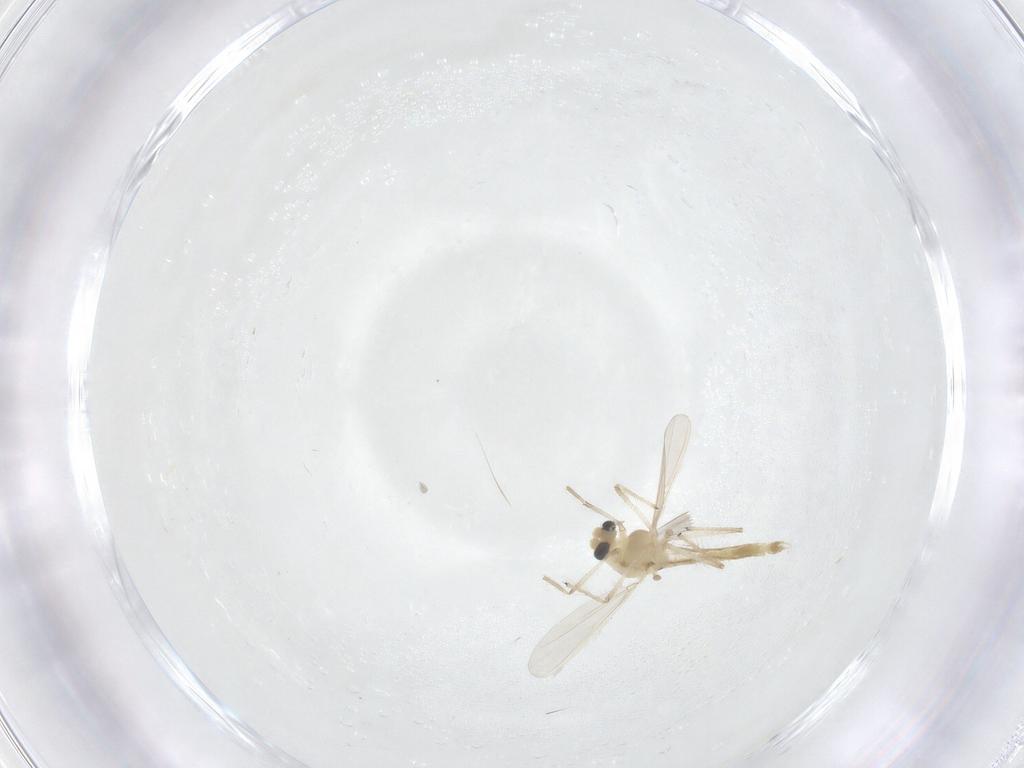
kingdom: Animalia
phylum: Arthropoda
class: Insecta
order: Diptera
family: Chironomidae
